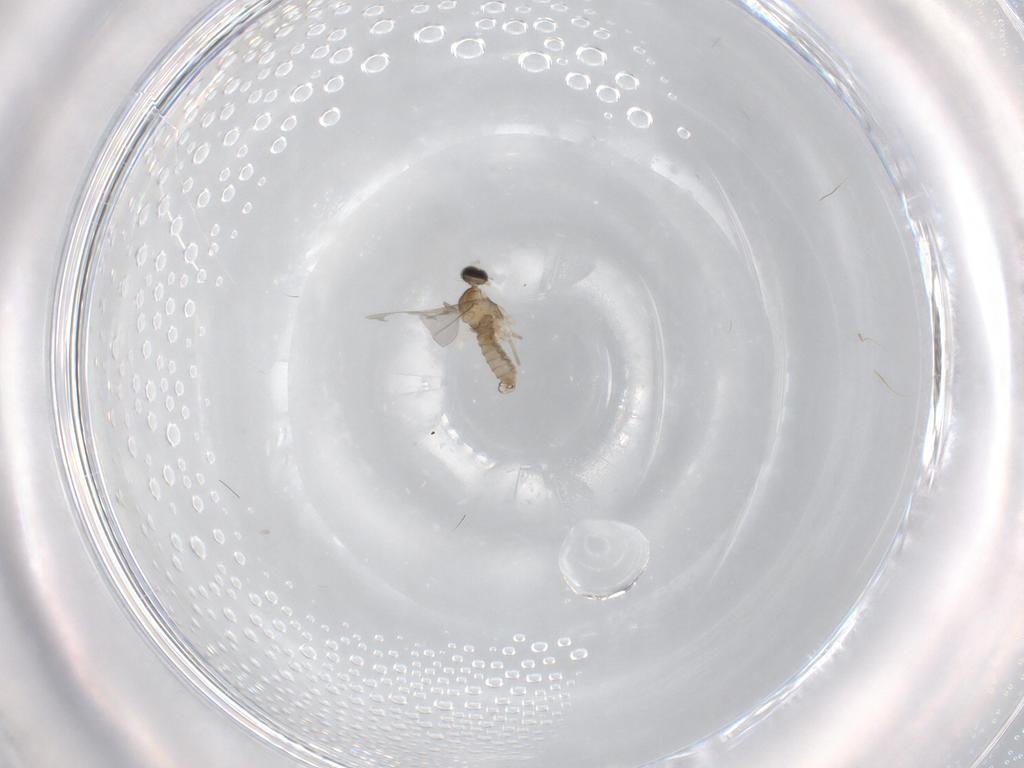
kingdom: Animalia
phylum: Arthropoda
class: Insecta
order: Diptera
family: Cecidomyiidae
